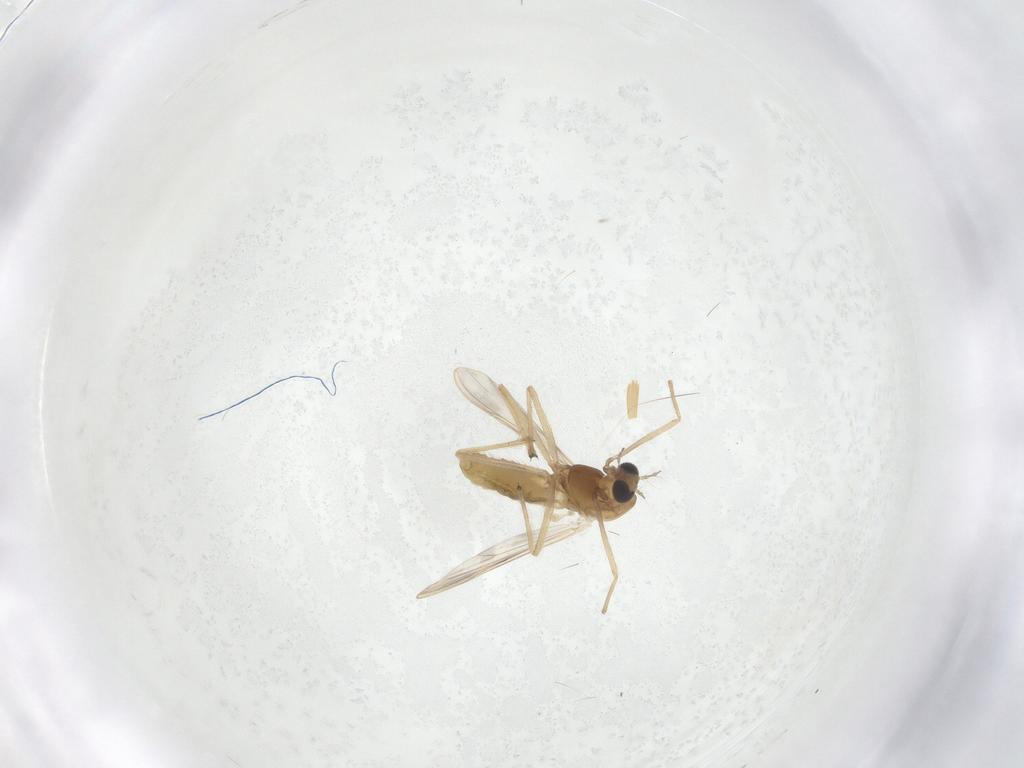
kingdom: Animalia
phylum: Arthropoda
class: Insecta
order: Diptera
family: Chironomidae
